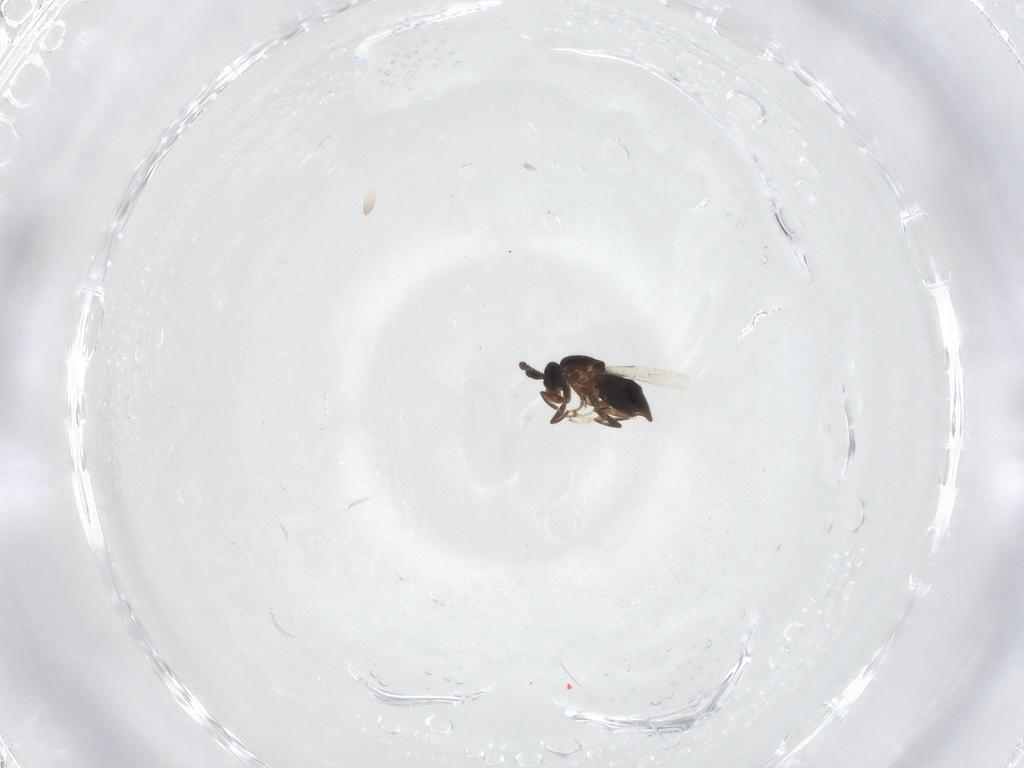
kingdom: Animalia
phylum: Arthropoda
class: Insecta
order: Diptera
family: Scatopsidae
